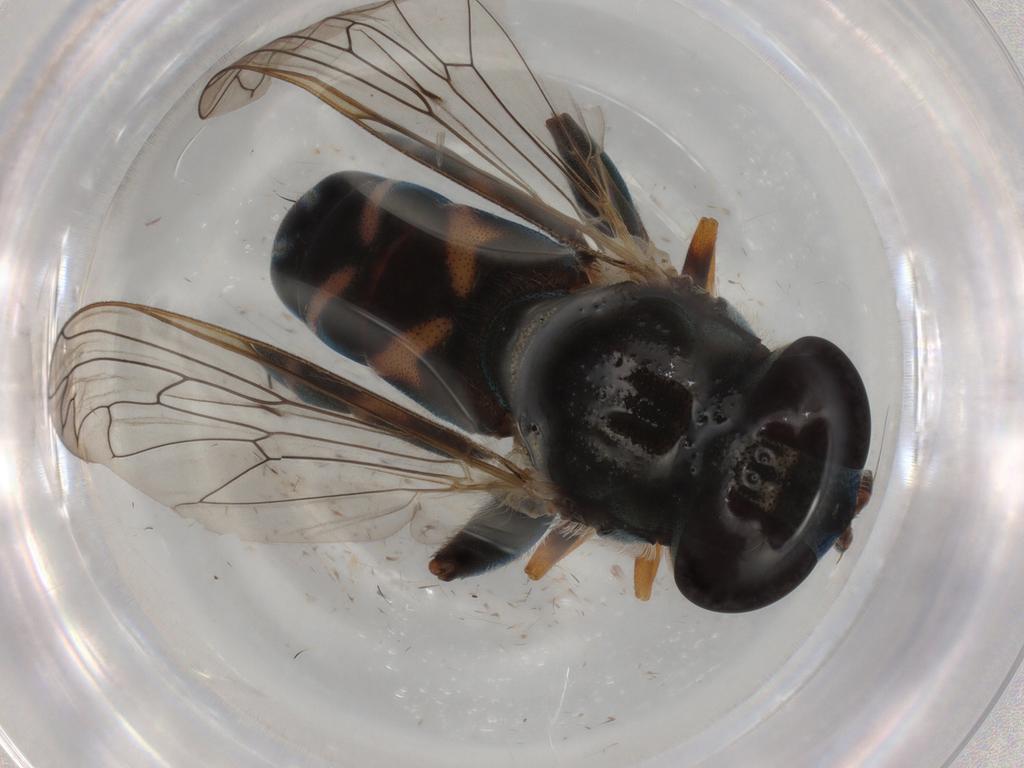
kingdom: Animalia
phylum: Arthropoda
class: Insecta
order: Diptera
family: Syrphidae
